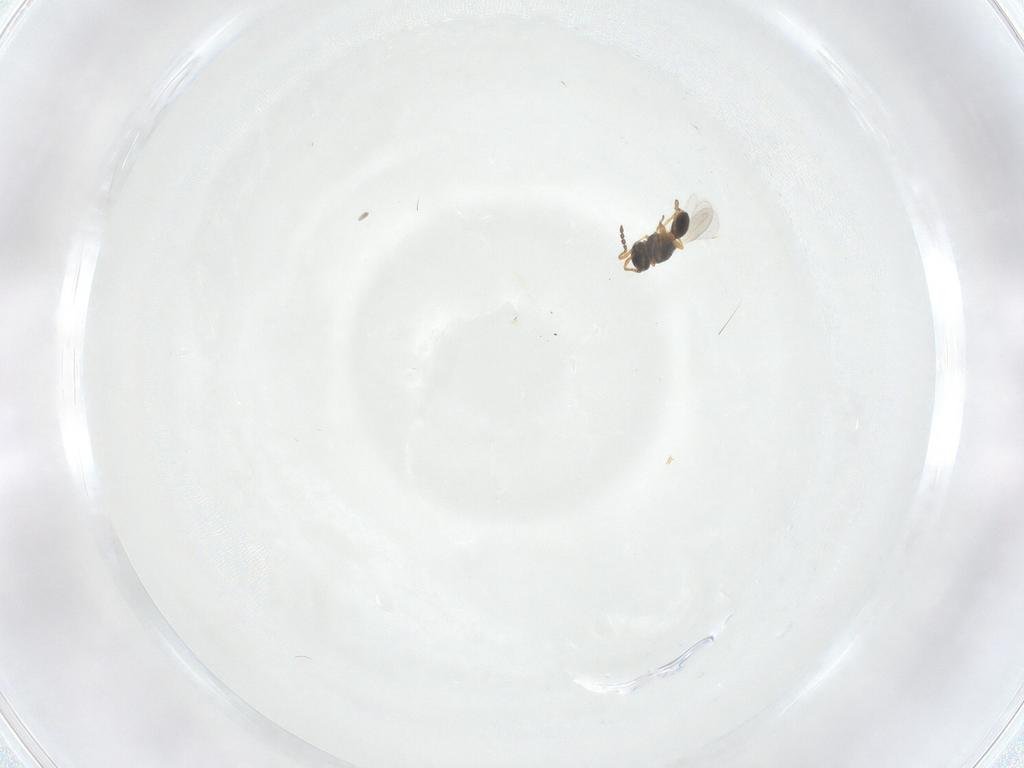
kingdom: Animalia
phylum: Arthropoda
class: Insecta
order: Hymenoptera
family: Platygastridae
